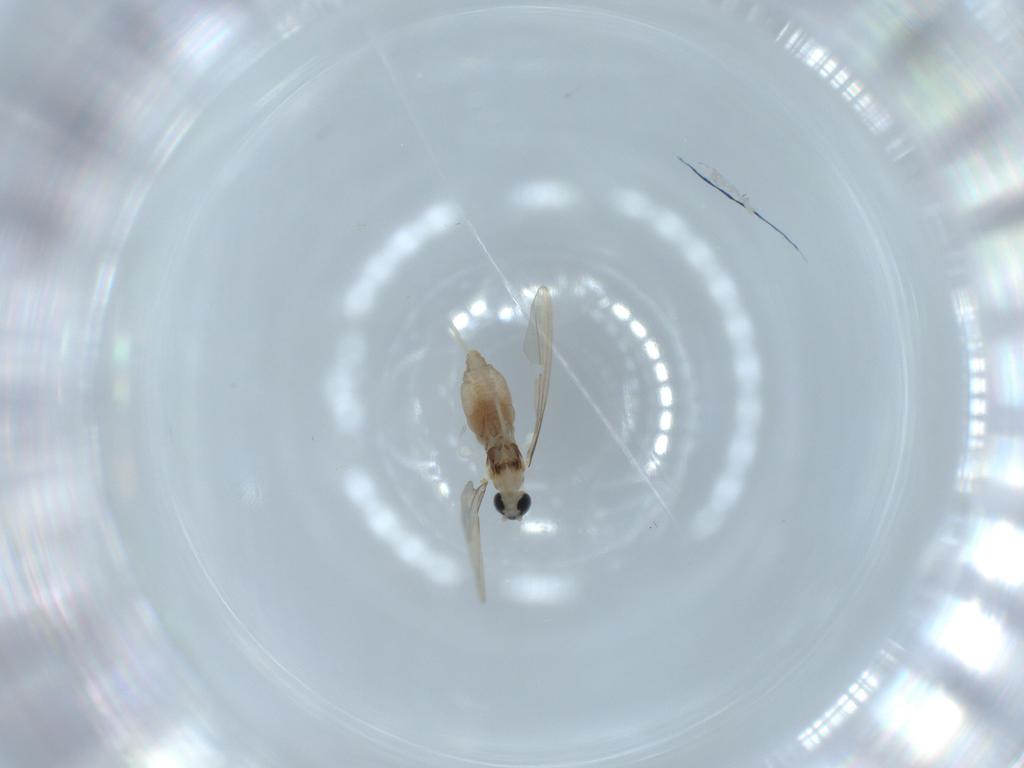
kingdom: Animalia
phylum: Arthropoda
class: Insecta
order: Diptera
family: Cecidomyiidae
